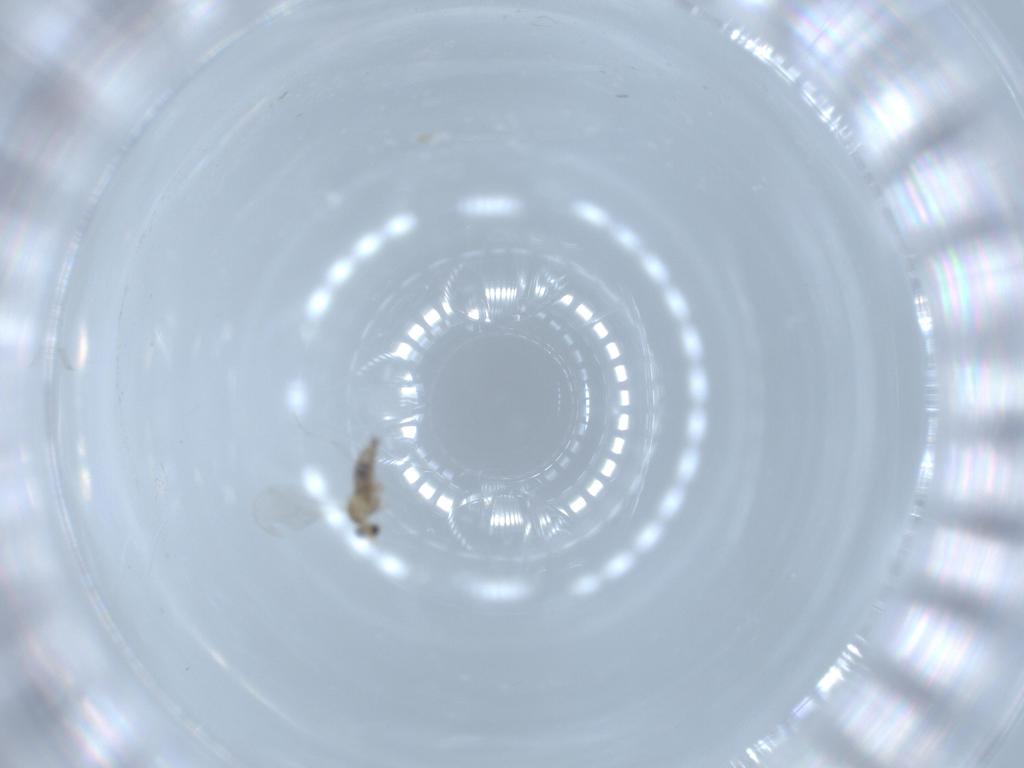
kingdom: Animalia
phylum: Arthropoda
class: Insecta
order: Diptera
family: Cecidomyiidae
